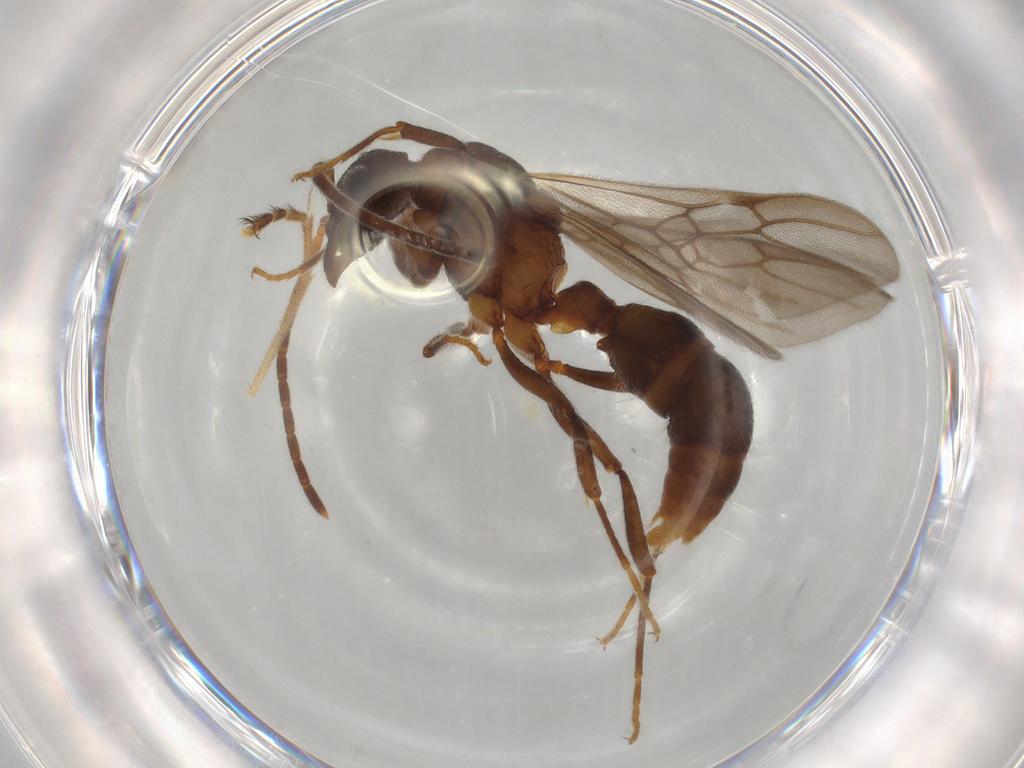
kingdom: Animalia
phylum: Arthropoda
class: Insecta
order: Hymenoptera
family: Formicidae
